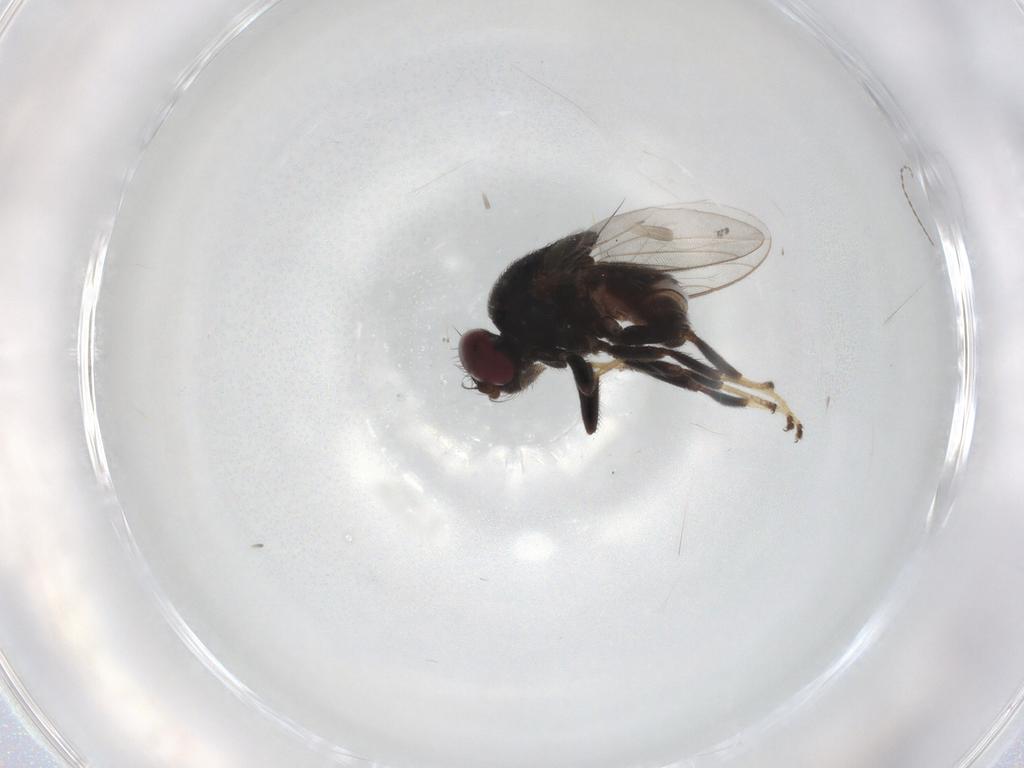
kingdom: Animalia
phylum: Arthropoda
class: Insecta
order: Diptera
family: Chloropidae
